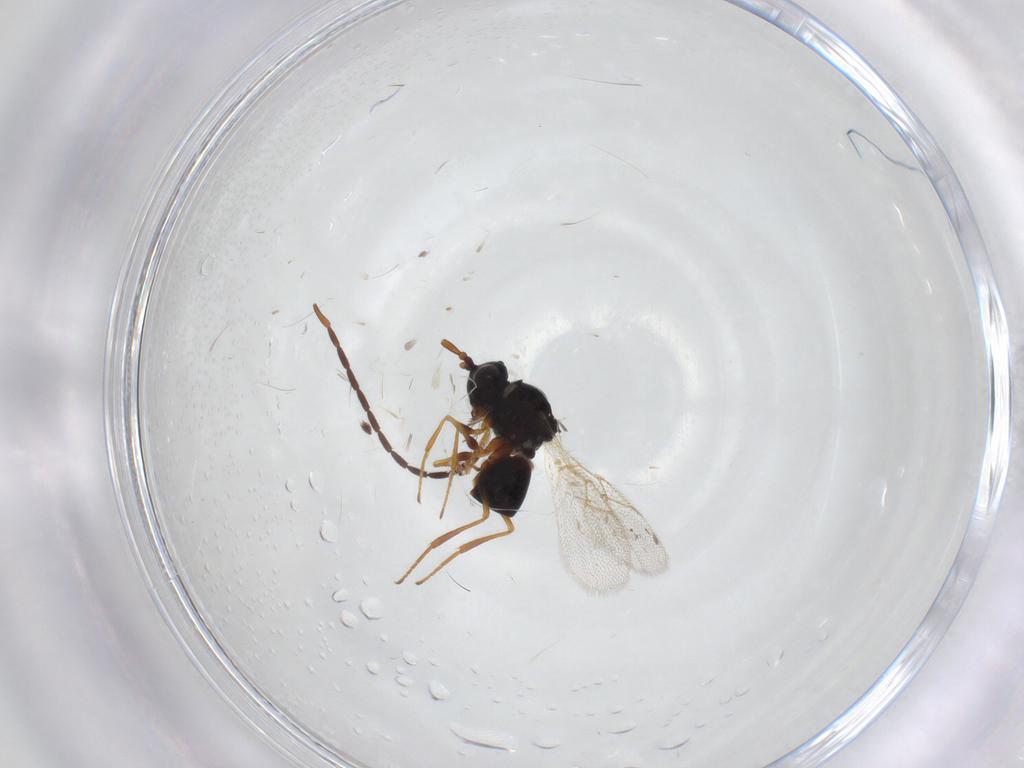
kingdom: Animalia
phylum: Arthropoda
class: Insecta
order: Hymenoptera
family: Figitidae
